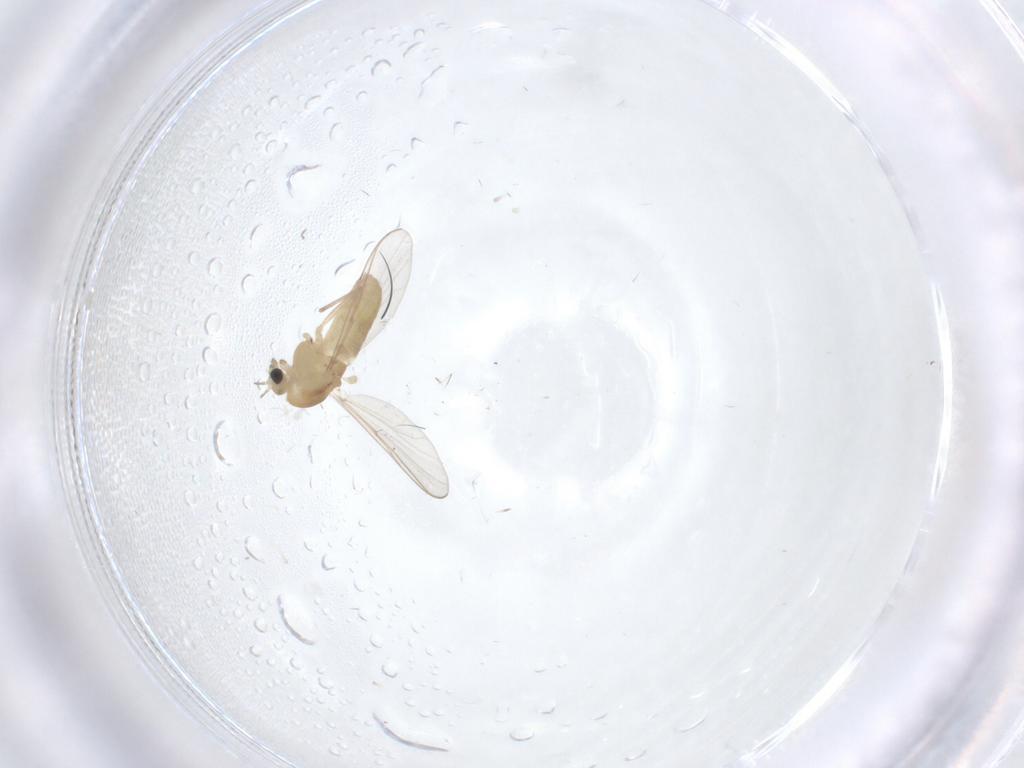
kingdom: Animalia
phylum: Arthropoda
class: Insecta
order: Diptera
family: Chironomidae
